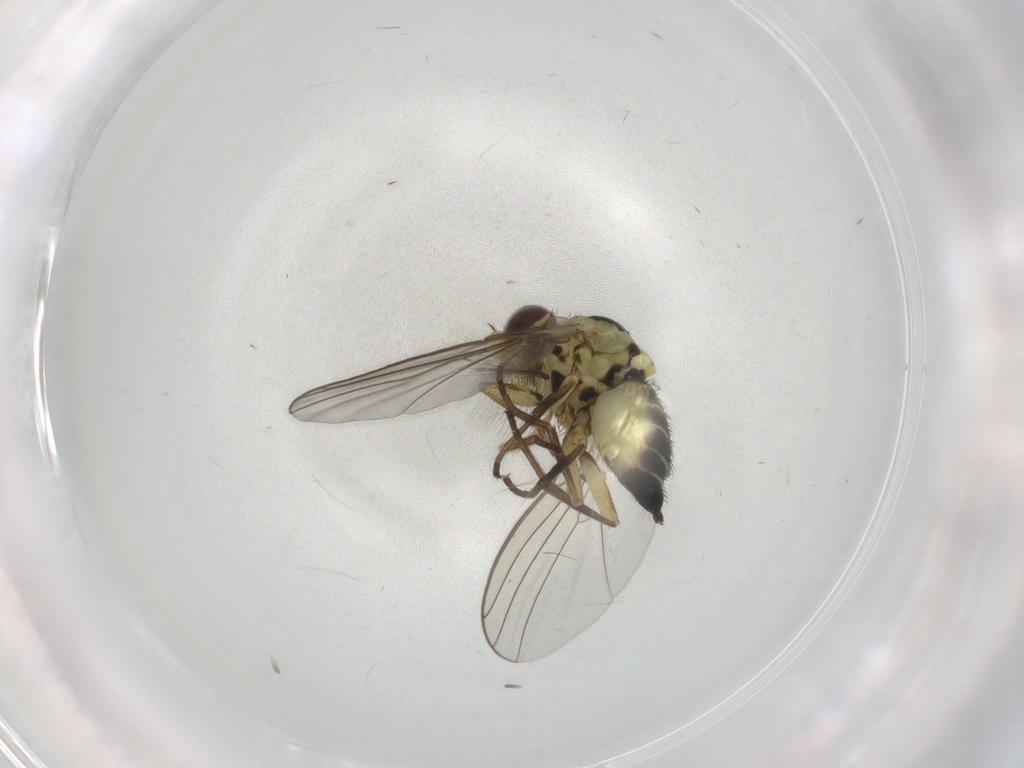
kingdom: Animalia
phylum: Arthropoda
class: Insecta
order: Diptera
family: Agromyzidae
